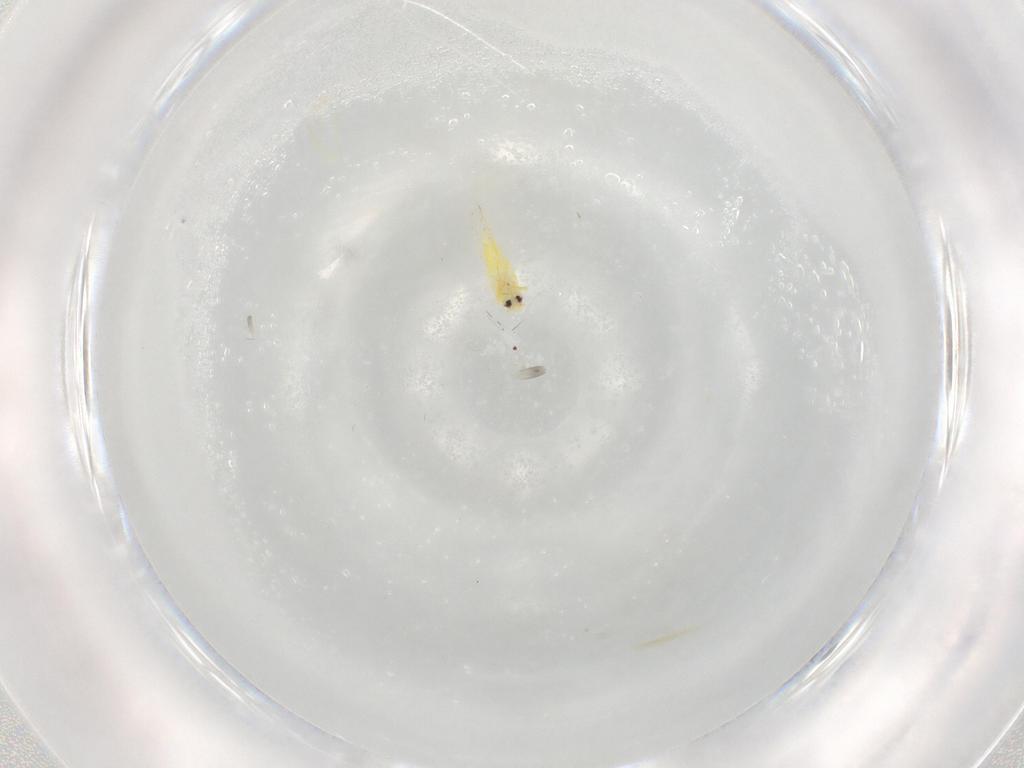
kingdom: Animalia
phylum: Arthropoda
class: Insecta
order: Hemiptera
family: Aleyrodidae
